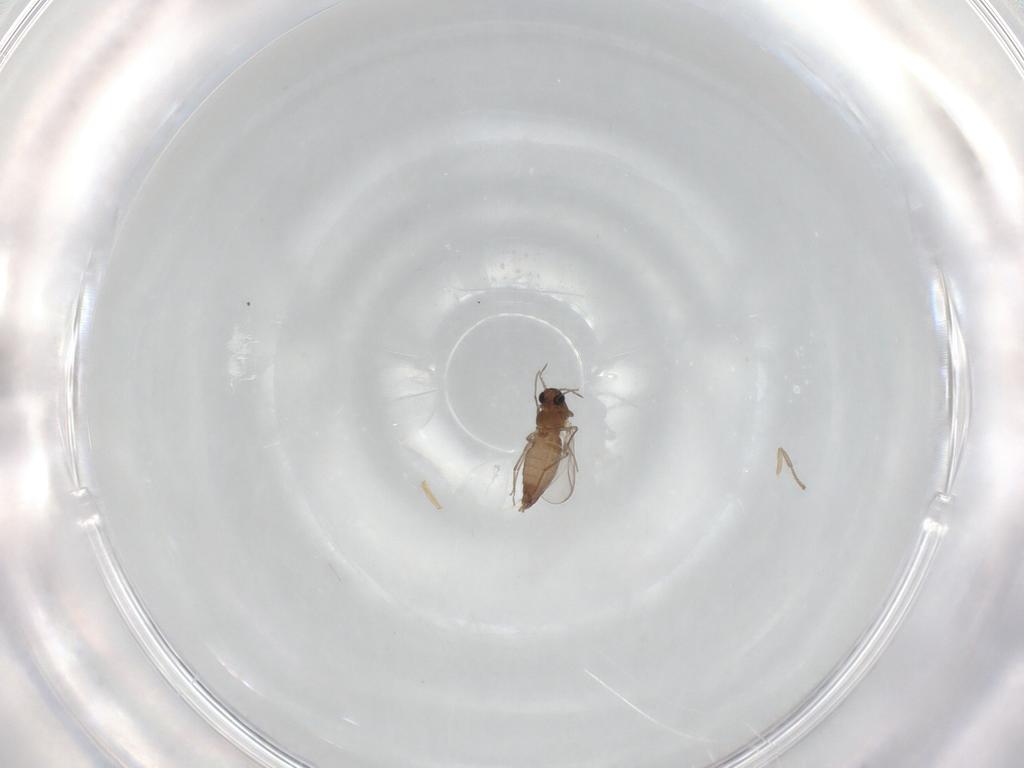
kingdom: Animalia
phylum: Arthropoda
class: Insecta
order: Diptera
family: Chironomidae
